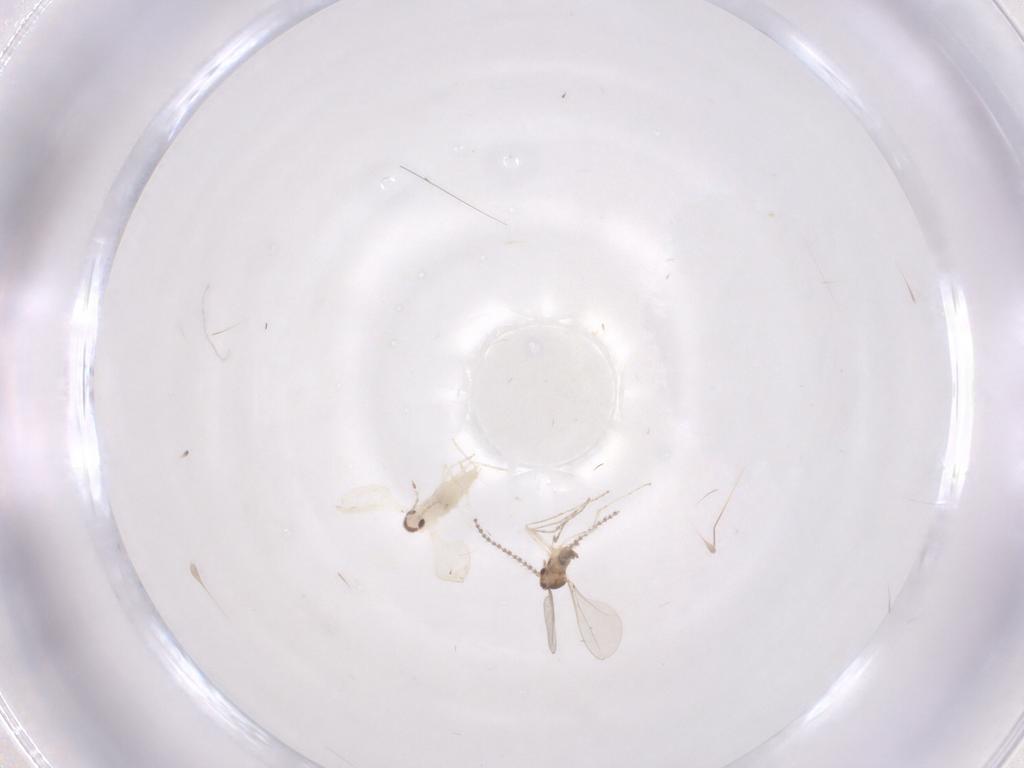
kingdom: Animalia
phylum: Arthropoda
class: Insecta
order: Diptera
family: Cecidomyiidae
